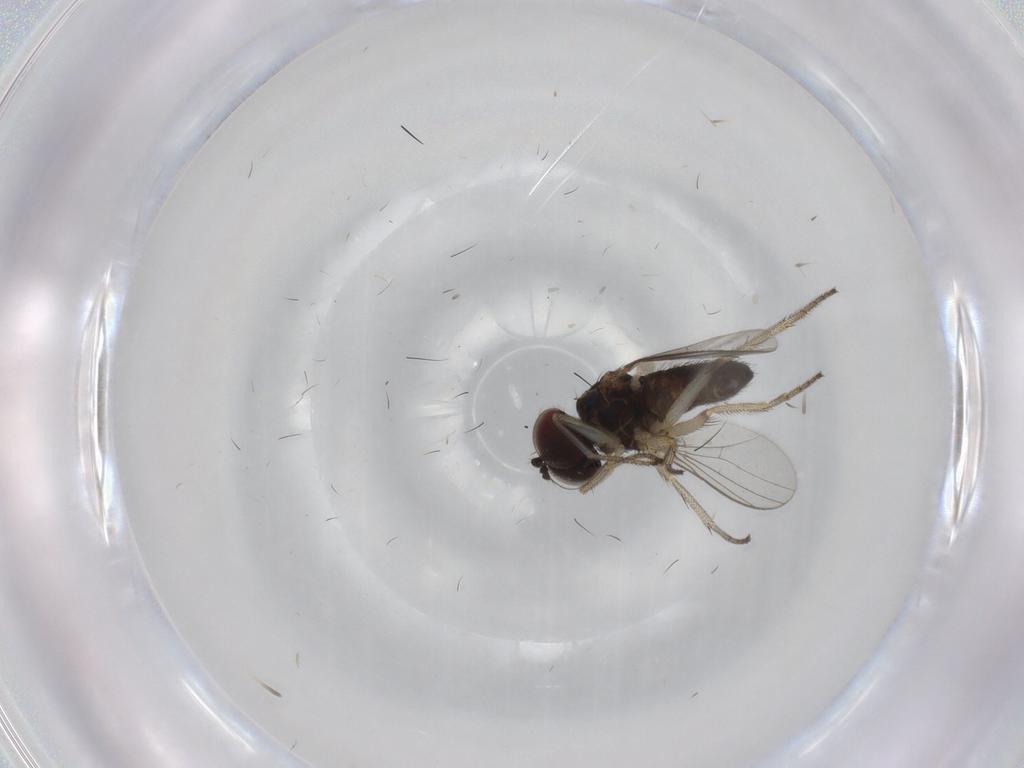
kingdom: Animalia
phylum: Arthropoda
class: Insecta
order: Diptera
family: Dolichopodidae
